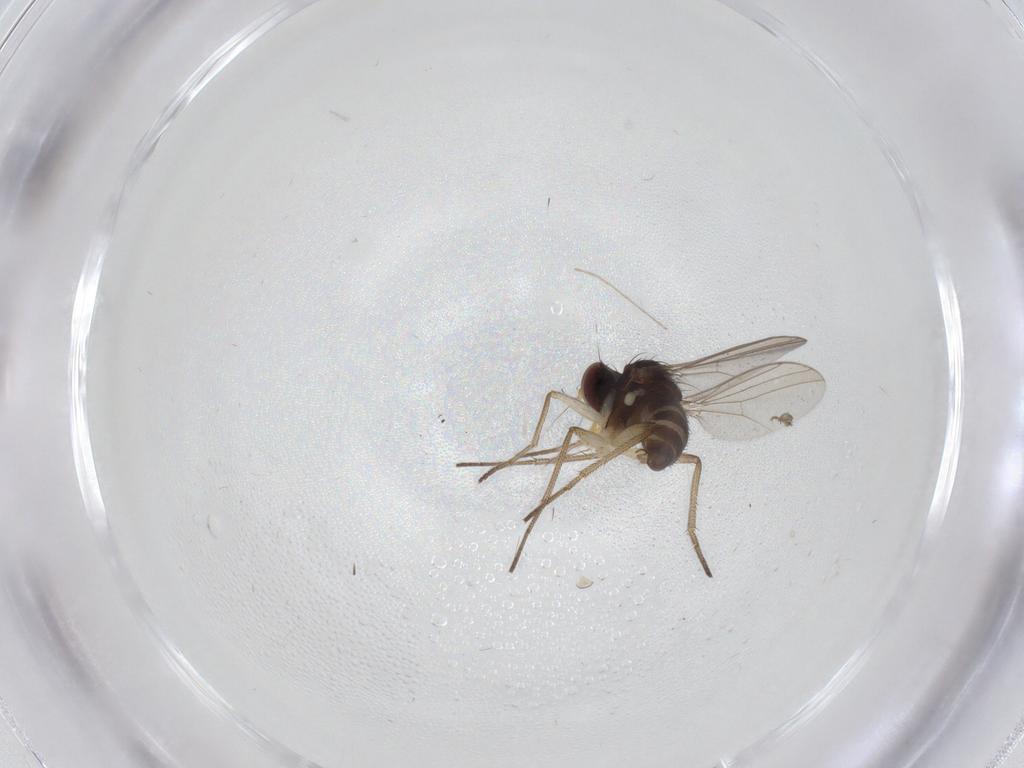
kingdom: Animalia
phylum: Arthropoda
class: Insecta
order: Diptera
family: Dolichopodidae
